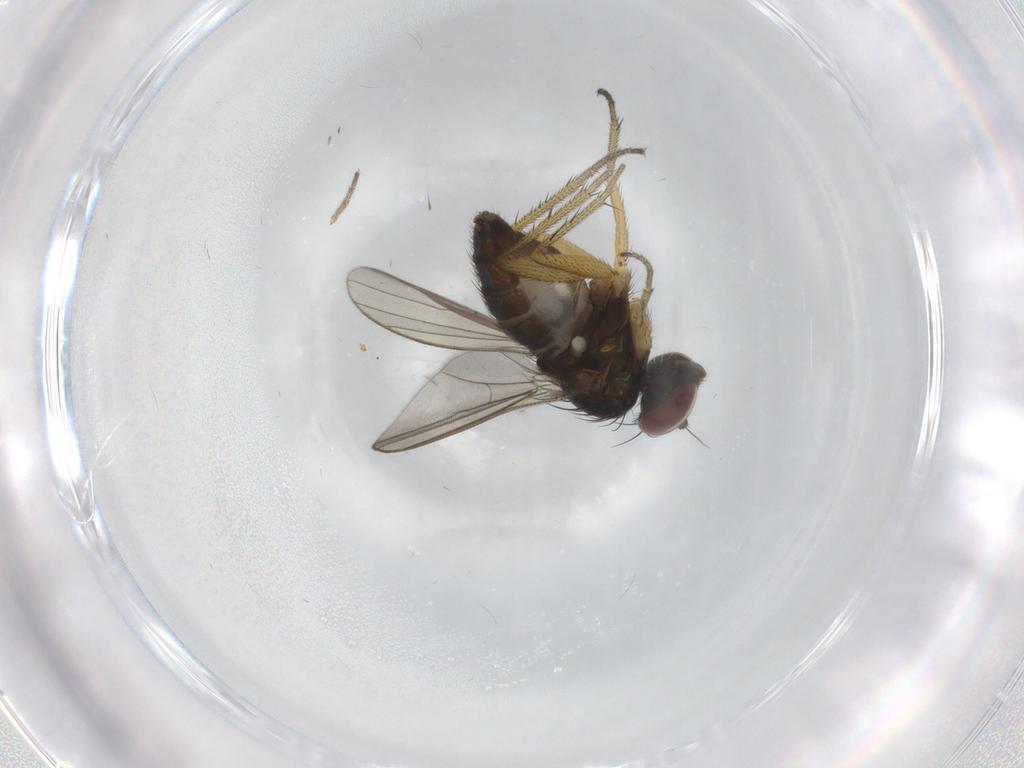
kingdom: Animalia
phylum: Arthropoda
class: Insecta
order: Diptera
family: Dolichopodidae
